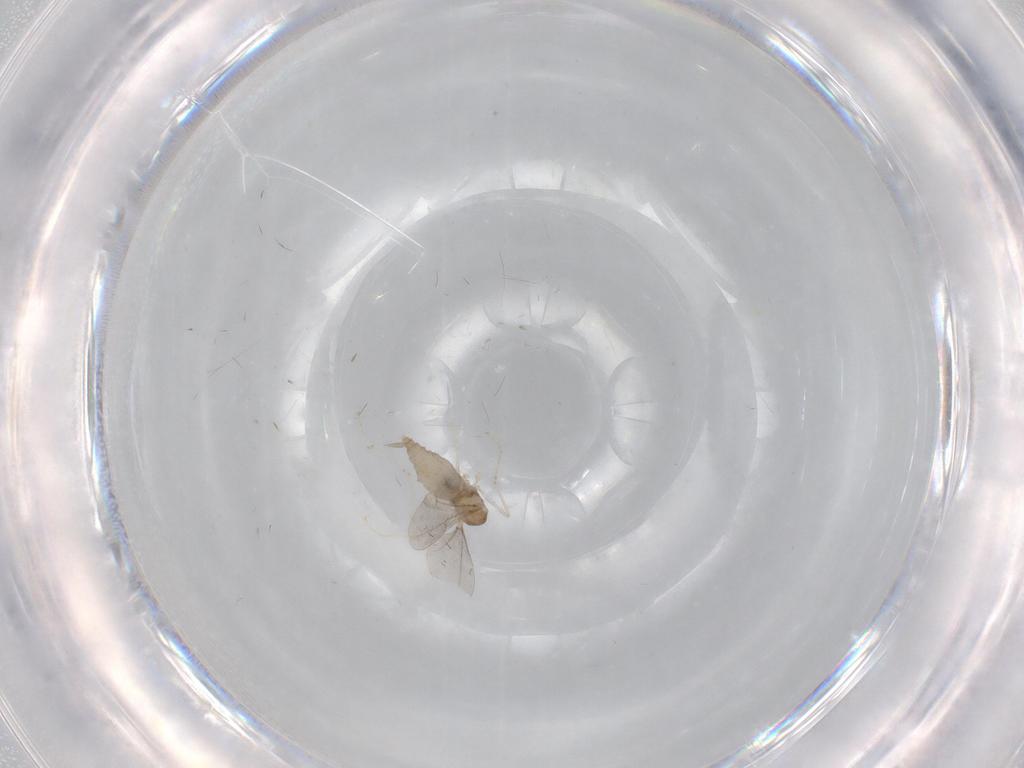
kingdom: Animalia
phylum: Arthropoda
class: Insecta
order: Diptera
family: Cecidomyiidae
